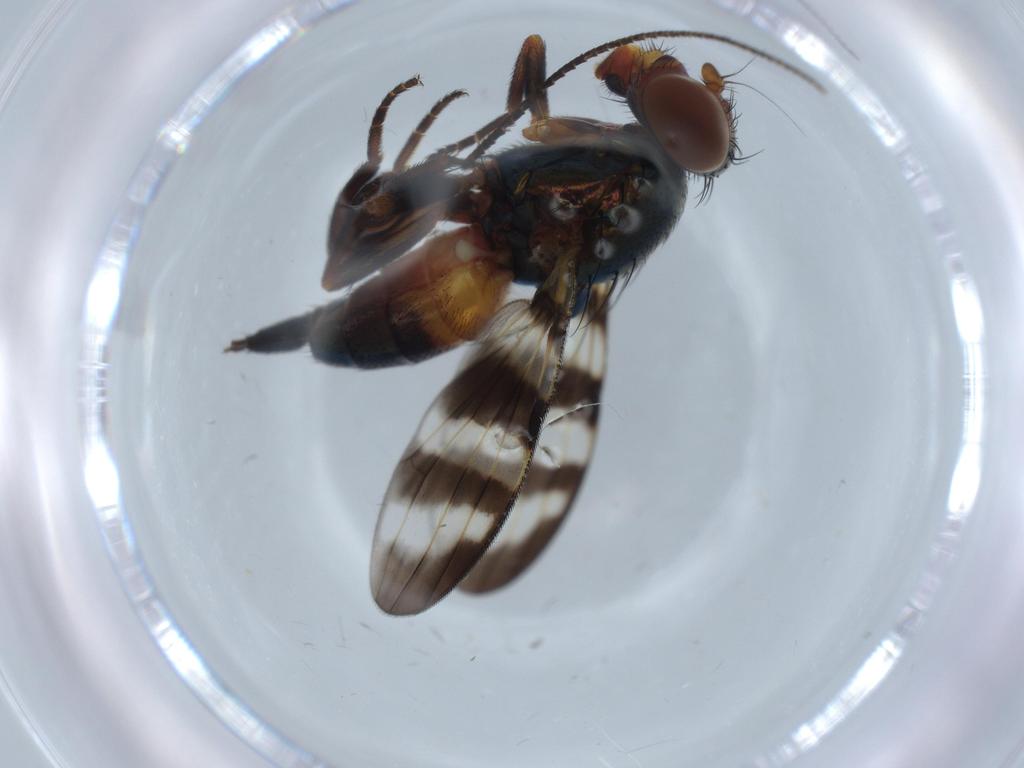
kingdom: Animalia
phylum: Arthropoda
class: Insecta
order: Diptera
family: Chironomidae
